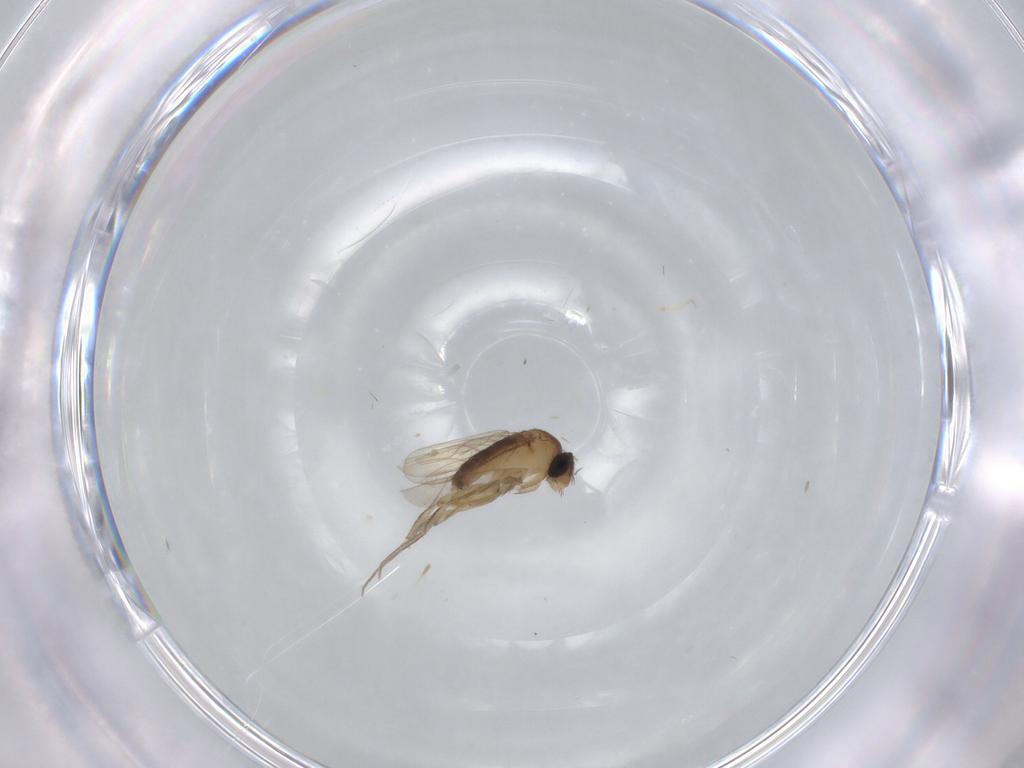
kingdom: Animalia
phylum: Arthropoda
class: Insecta
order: Diptera
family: Phoridae
